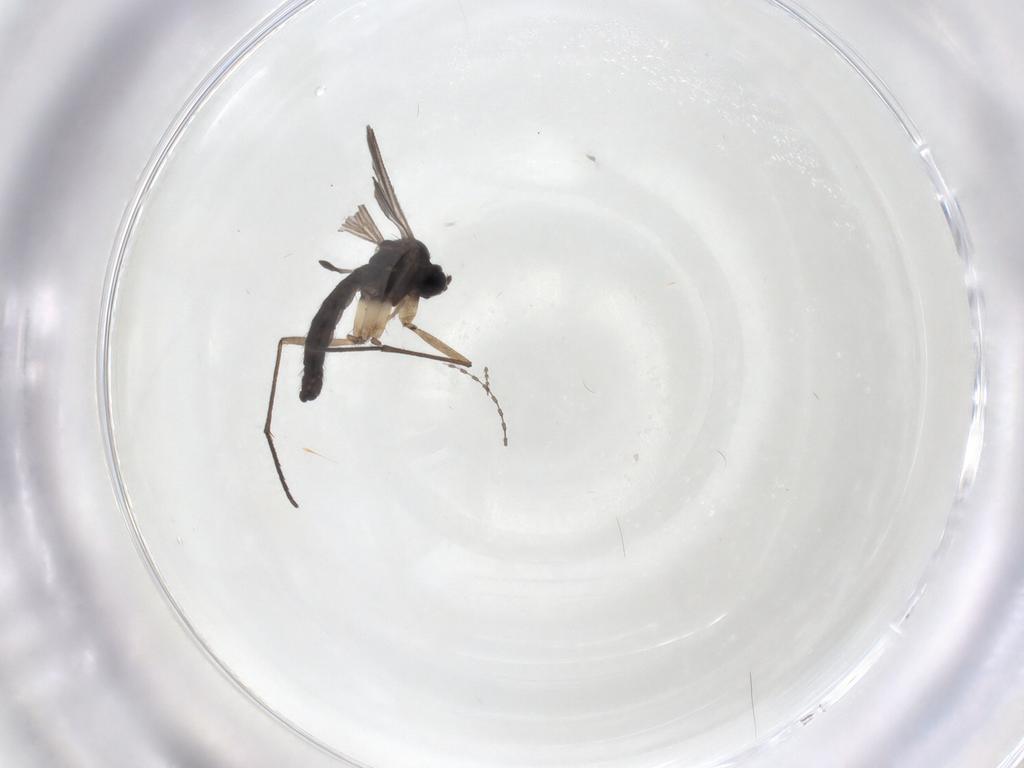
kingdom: Animalia
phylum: Arthropoda
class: Insecta
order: Diptera
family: Sciaridae
